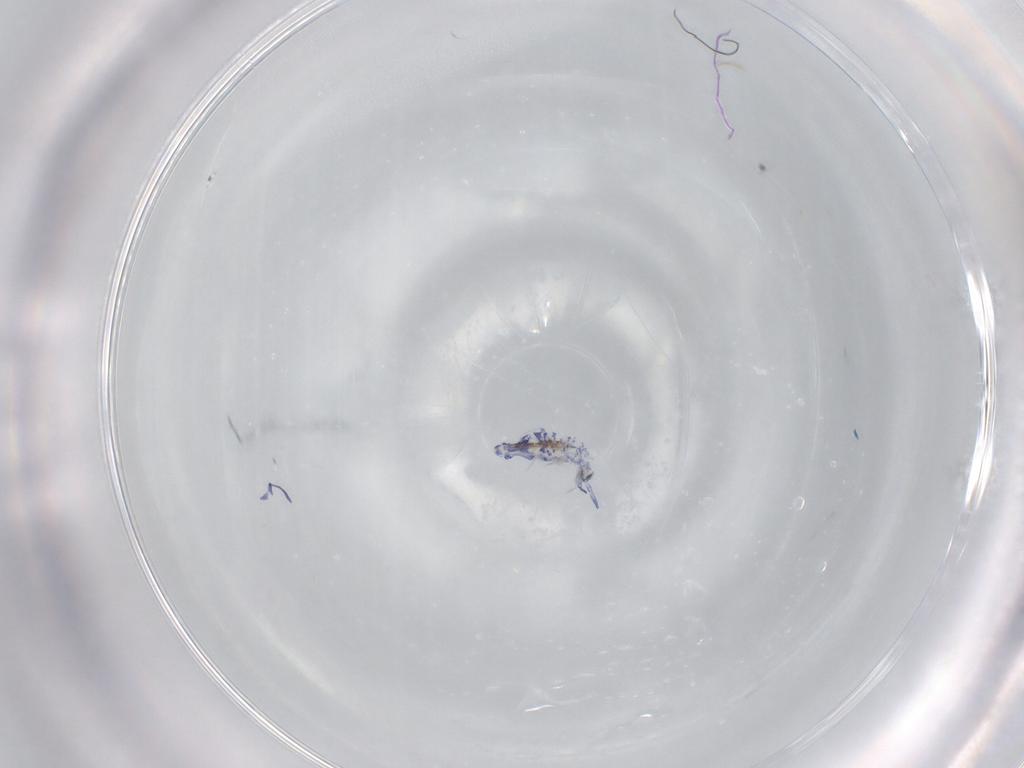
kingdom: Animalia
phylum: Arthropoda
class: Collembola
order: Entomobryomorpha
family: Entomobryidae
